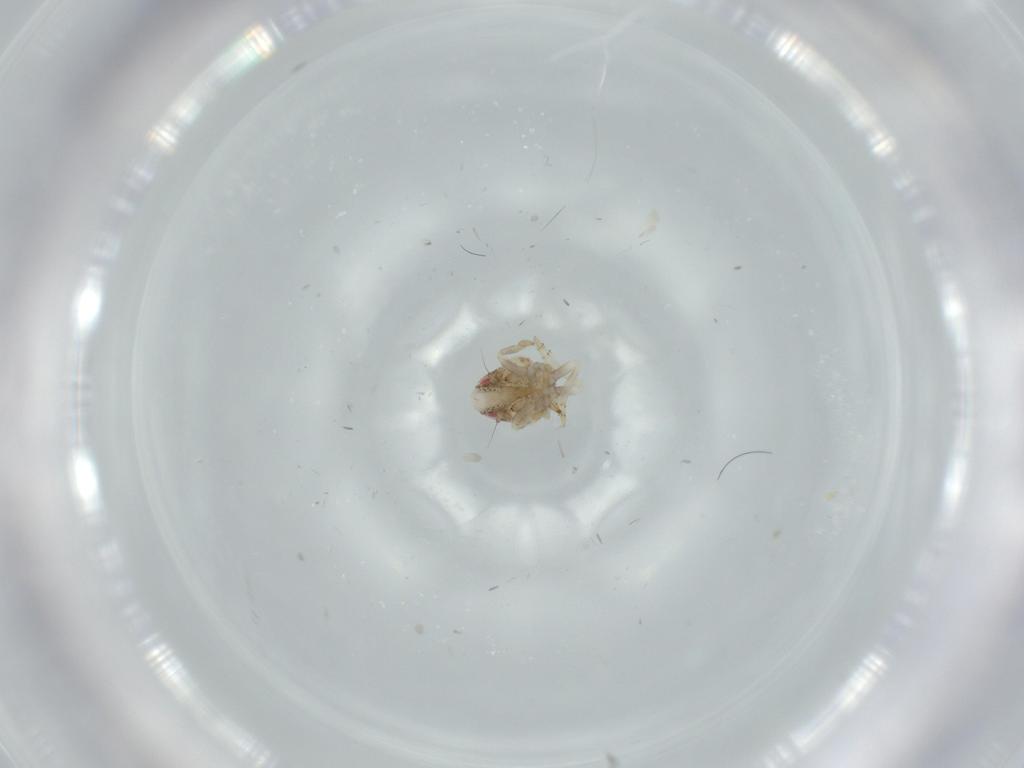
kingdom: Animalia
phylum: Arthropoda
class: Insecta
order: Hemiptera
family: Acanaloniidae
